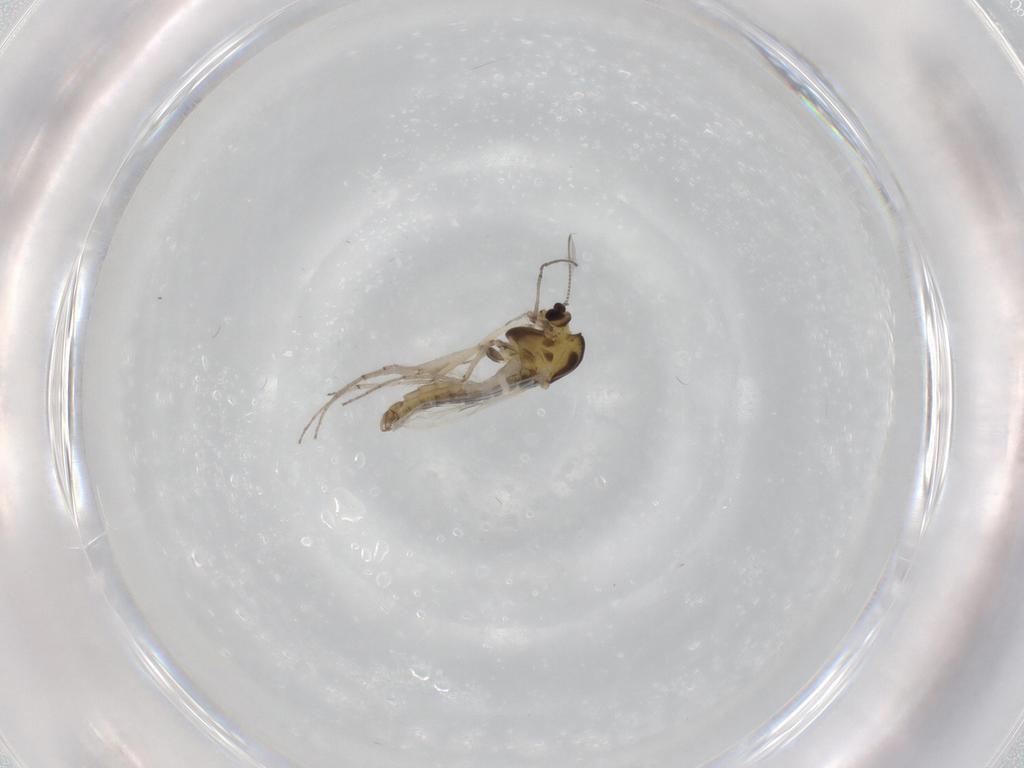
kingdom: Animalia
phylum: Arthropoda
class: Insecta
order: Diptera
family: Chironomidae
